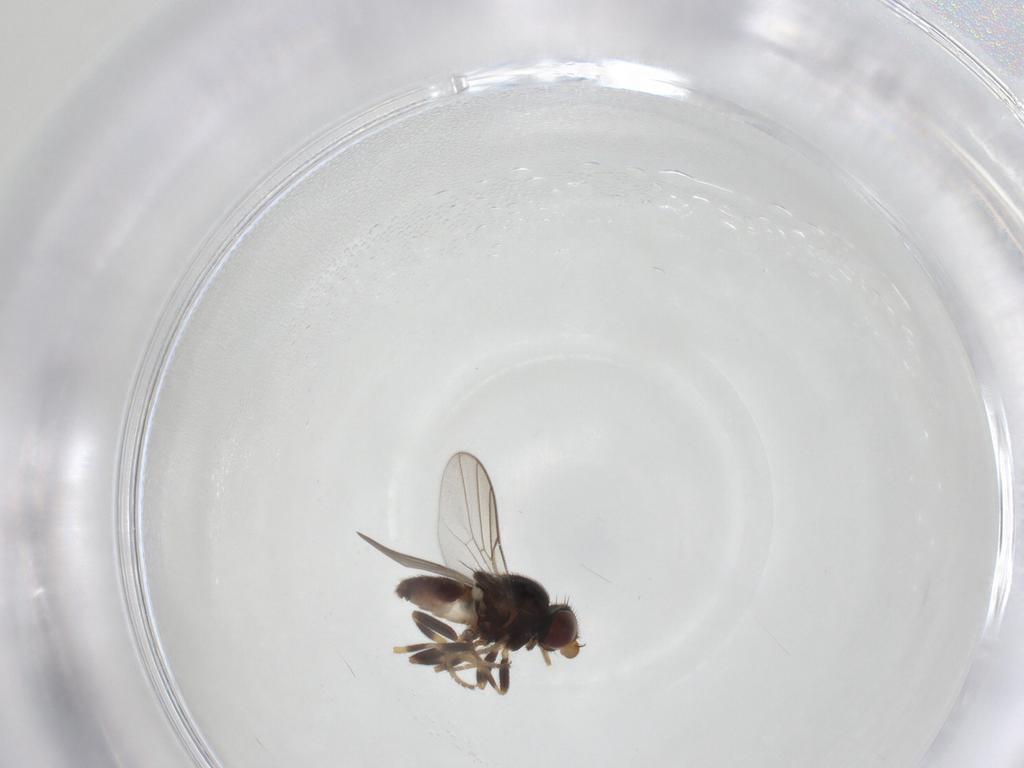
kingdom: Animalia
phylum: Arthropoda
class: Insecta
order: Diptera
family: Chloropidae
